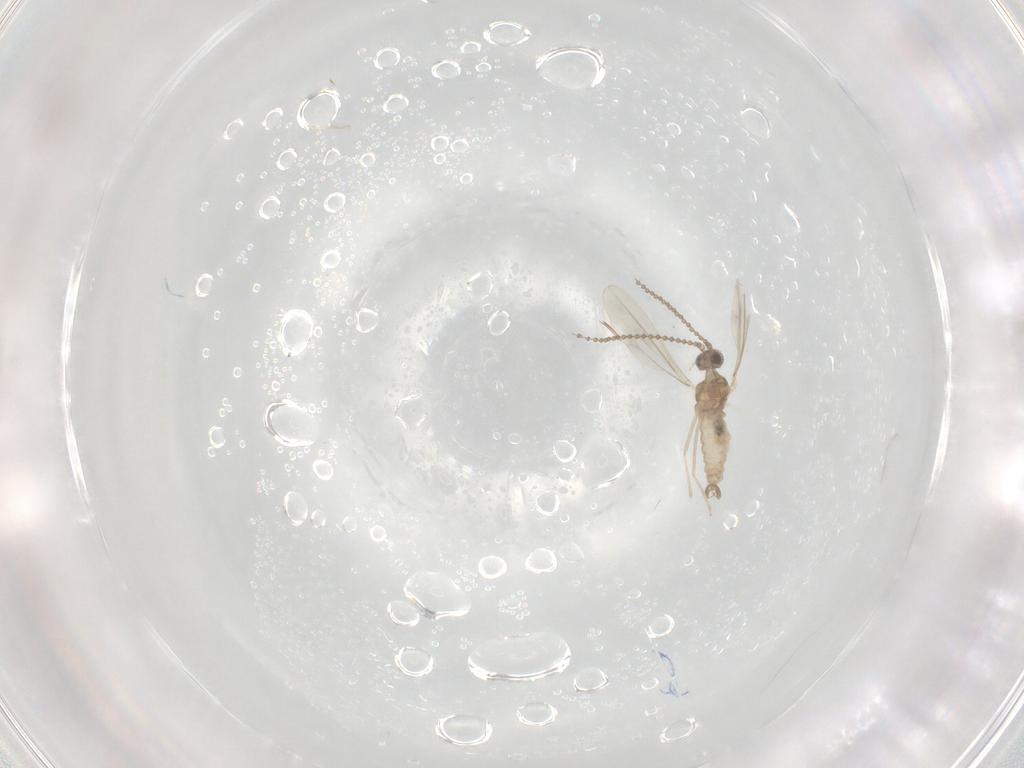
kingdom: Animalia
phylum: Arthropoda
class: Insecta
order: Diptera
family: Cecidomyiidae
